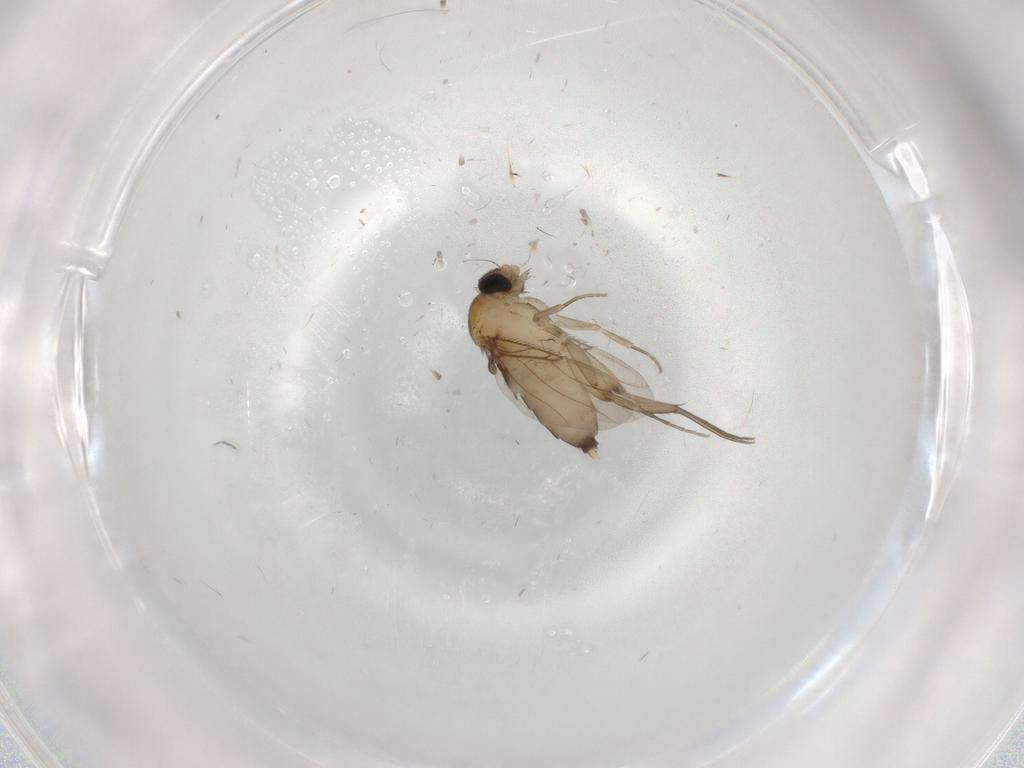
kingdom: Animalia
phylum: Arthropoda
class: Insecta
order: Diptera
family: Phoridae
